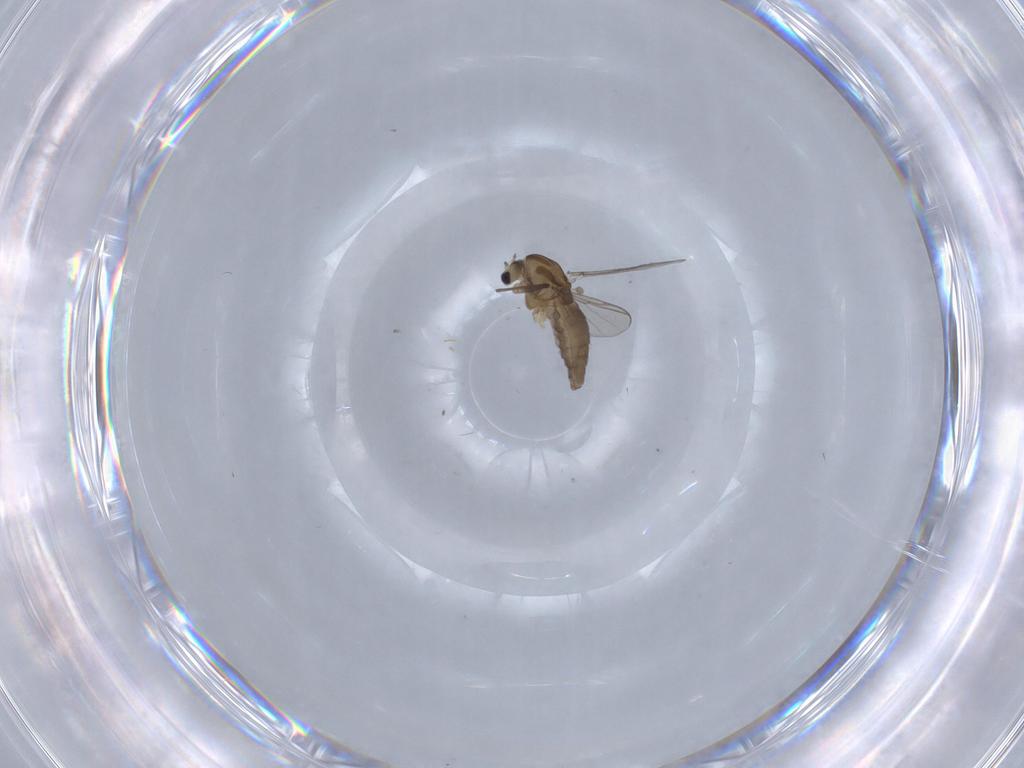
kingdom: Animalia
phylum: Arthropoda
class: Insecta
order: Diptera
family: Chironomidae
